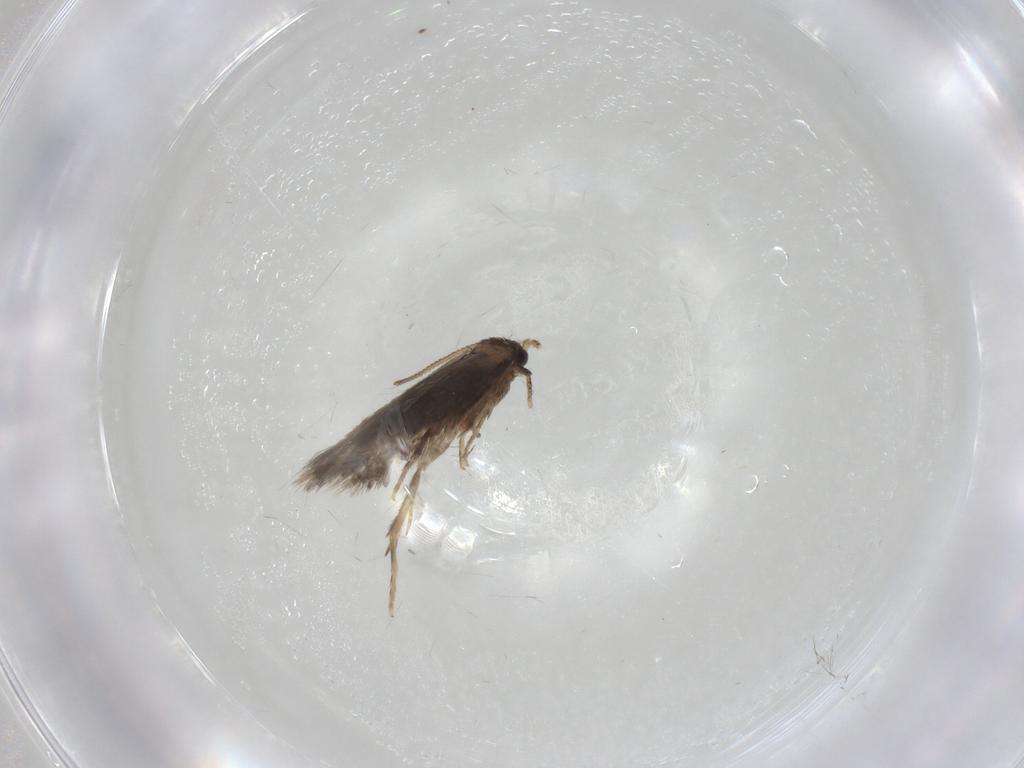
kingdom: Animalia
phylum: Arthropoda
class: Insecta
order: Lepidoptera
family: Nepticulidae
